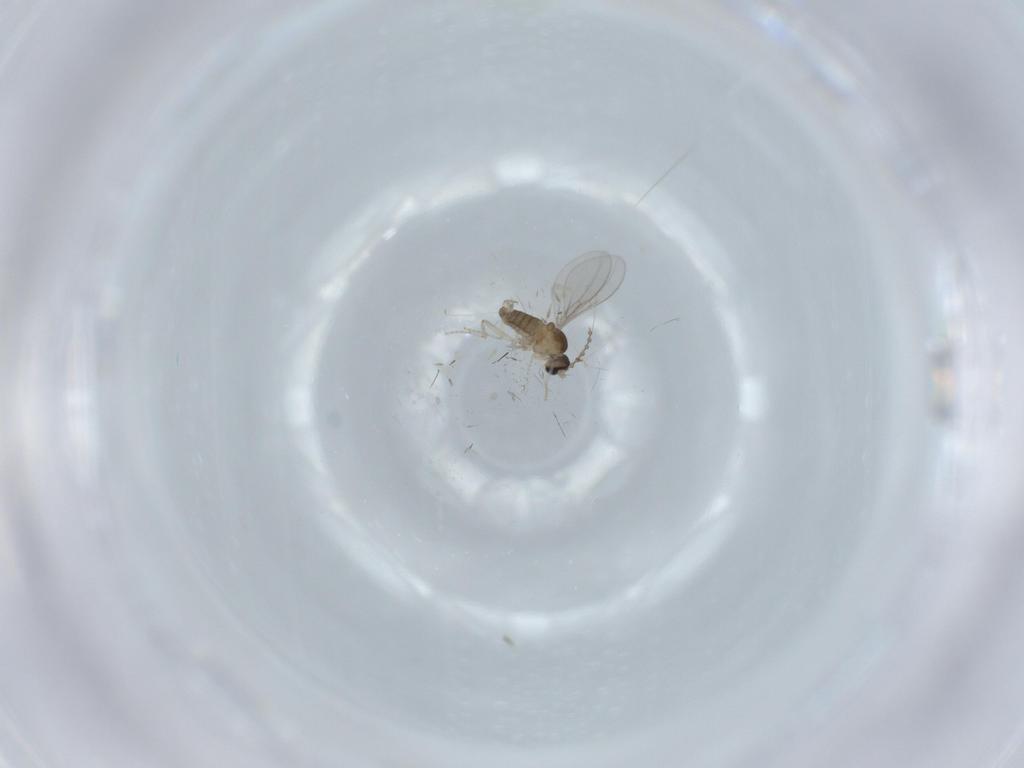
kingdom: Animalia
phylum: Arthropoda
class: Insecta
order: Diptera
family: Cecidomyiidae
